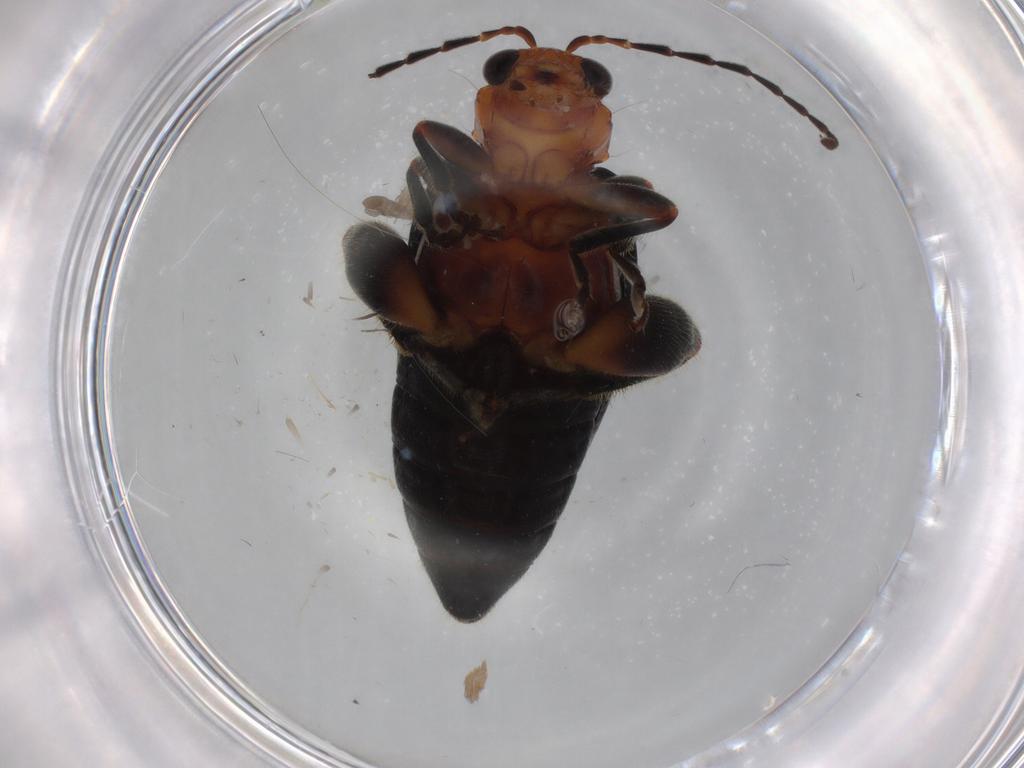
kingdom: Animalia
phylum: Arthropoda
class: Insecta
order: Coleoptera
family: Chrysomelidae
